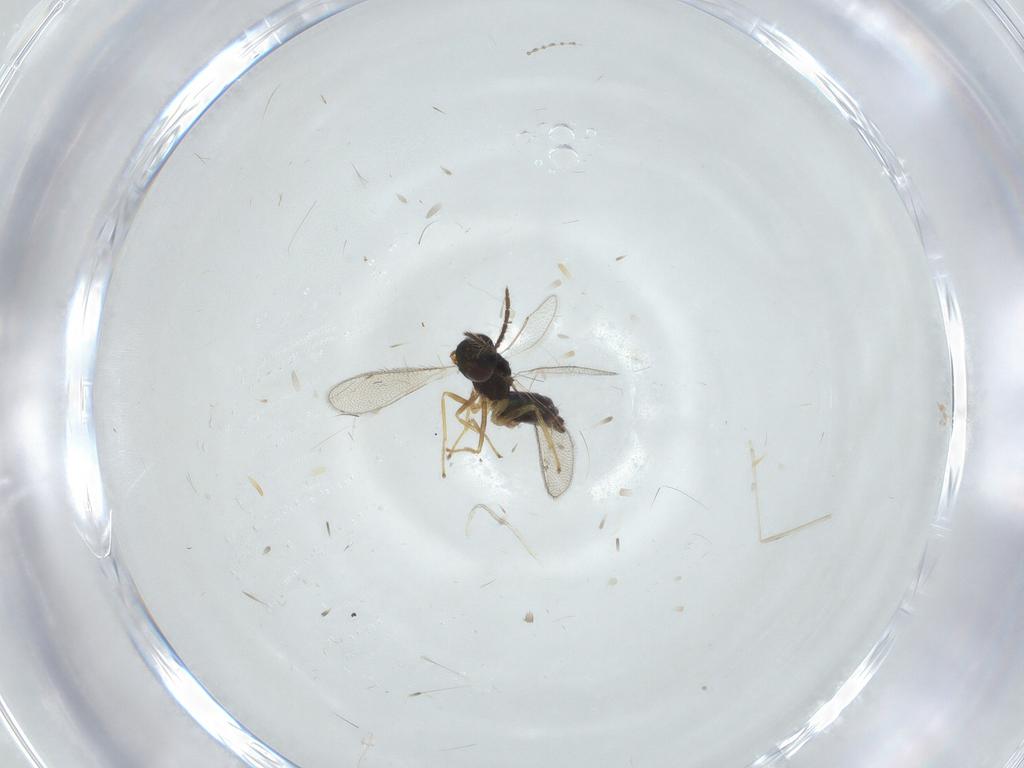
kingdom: Animalia
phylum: Arthropoda
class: Insecta
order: Hymenoptera
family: Eulophidae
